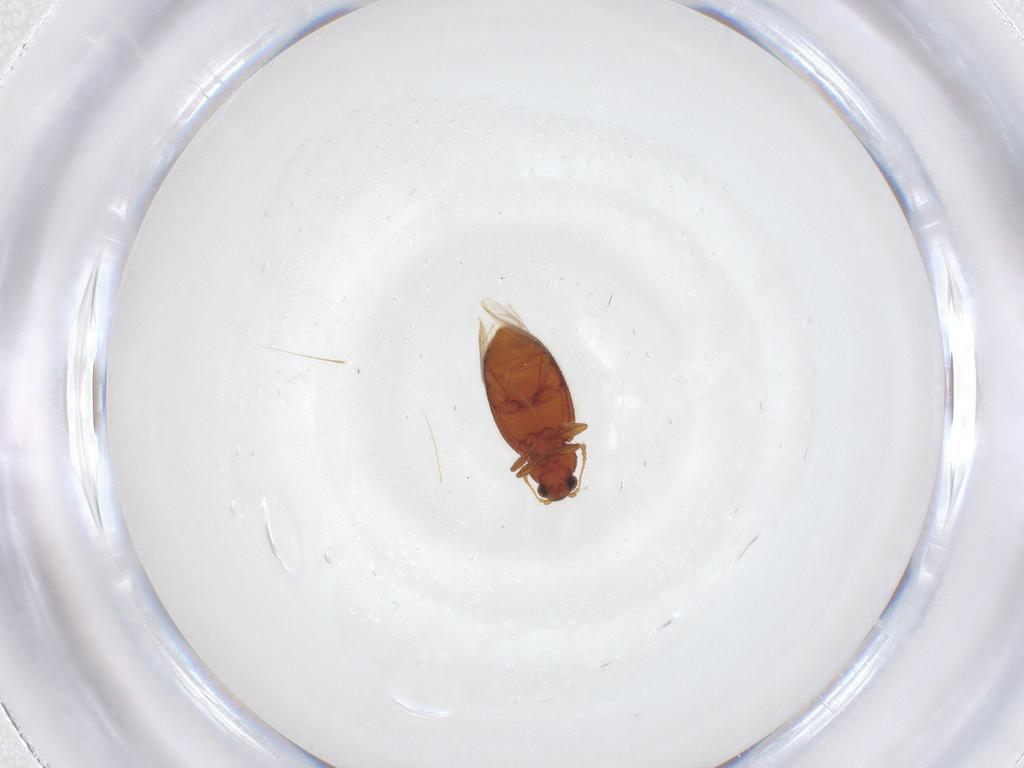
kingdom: Animalia
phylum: Arthropoda
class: Insecta
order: Coleoptera
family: Latridiidae
